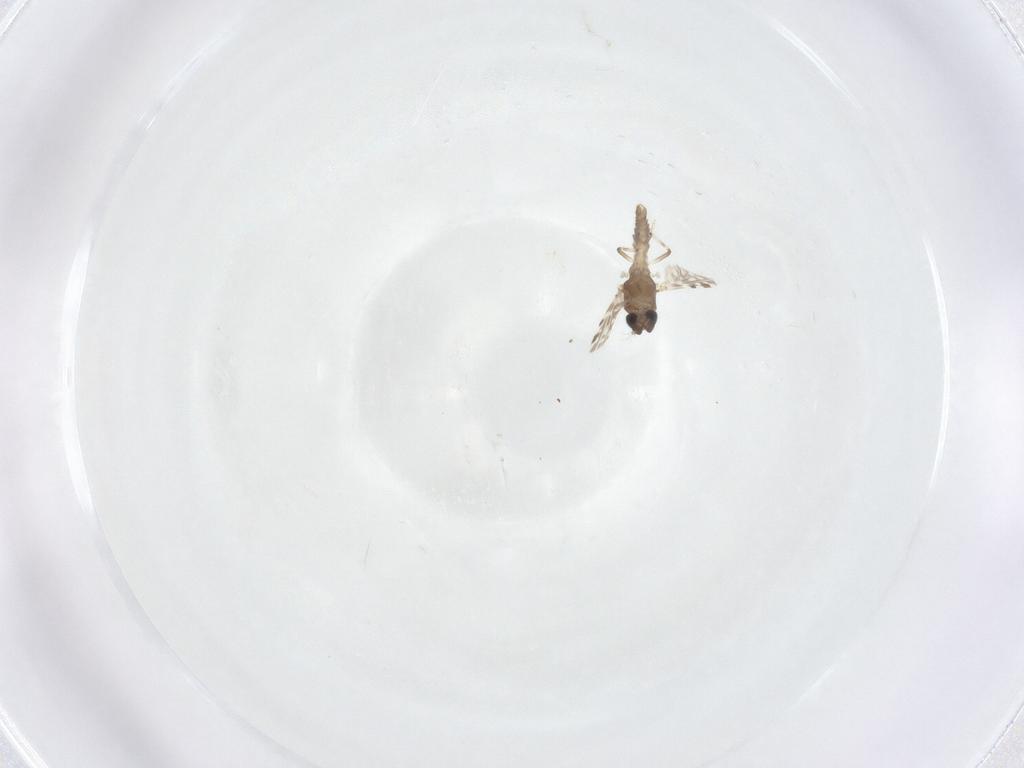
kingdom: Animalia
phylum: Arthropoda
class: Insecta
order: Diptera
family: Ceratopogonidae
